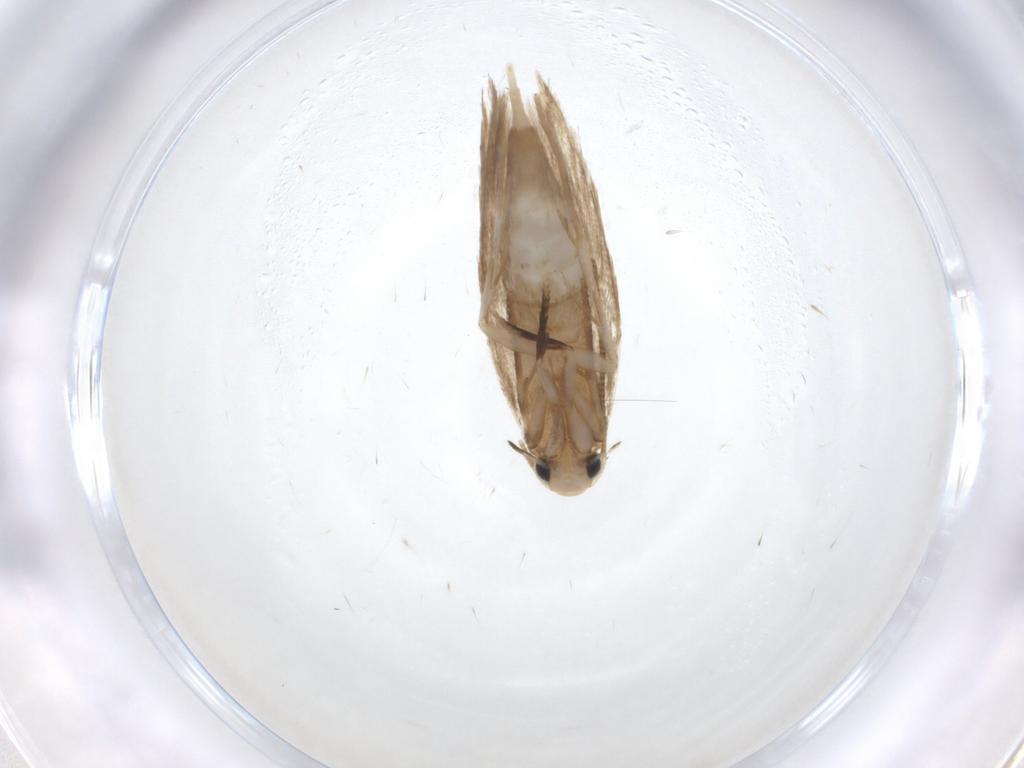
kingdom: Animalia
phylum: Arthropoda
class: Insecta
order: Lepidoptera
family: Tineidae
